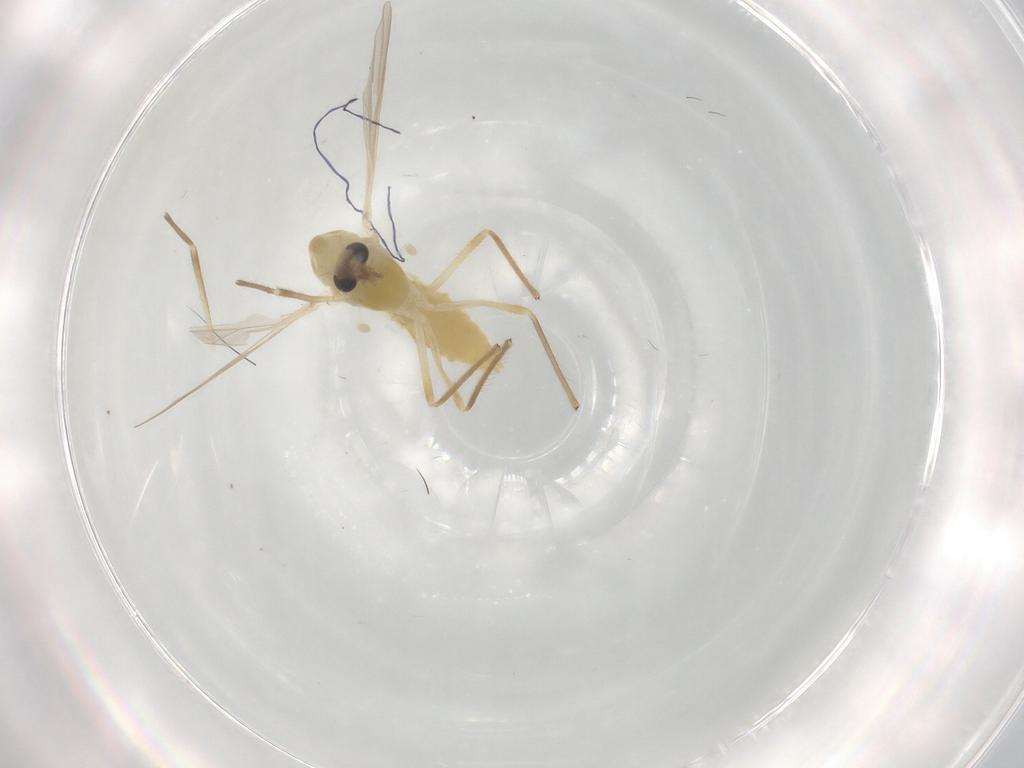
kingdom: Animalia
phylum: Arthropoda
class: Insecta
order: Diptera
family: Chironomidae
